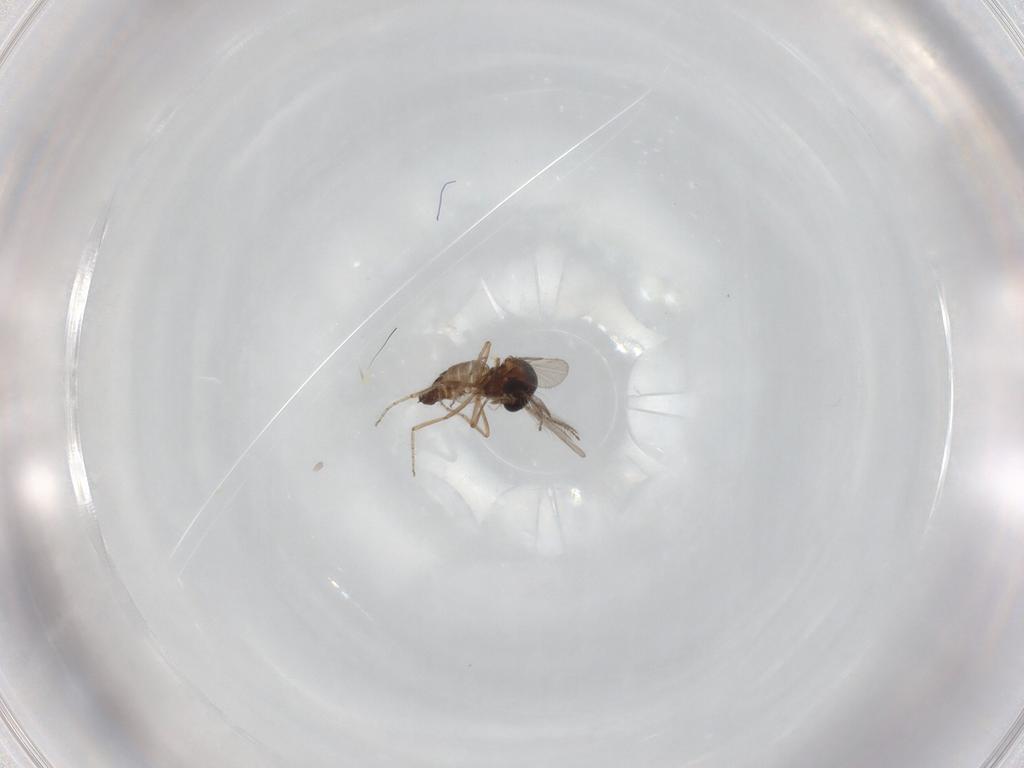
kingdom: Animalia
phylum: Arthropoda
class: Insecta
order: Diptera
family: Ceratopogonidae
